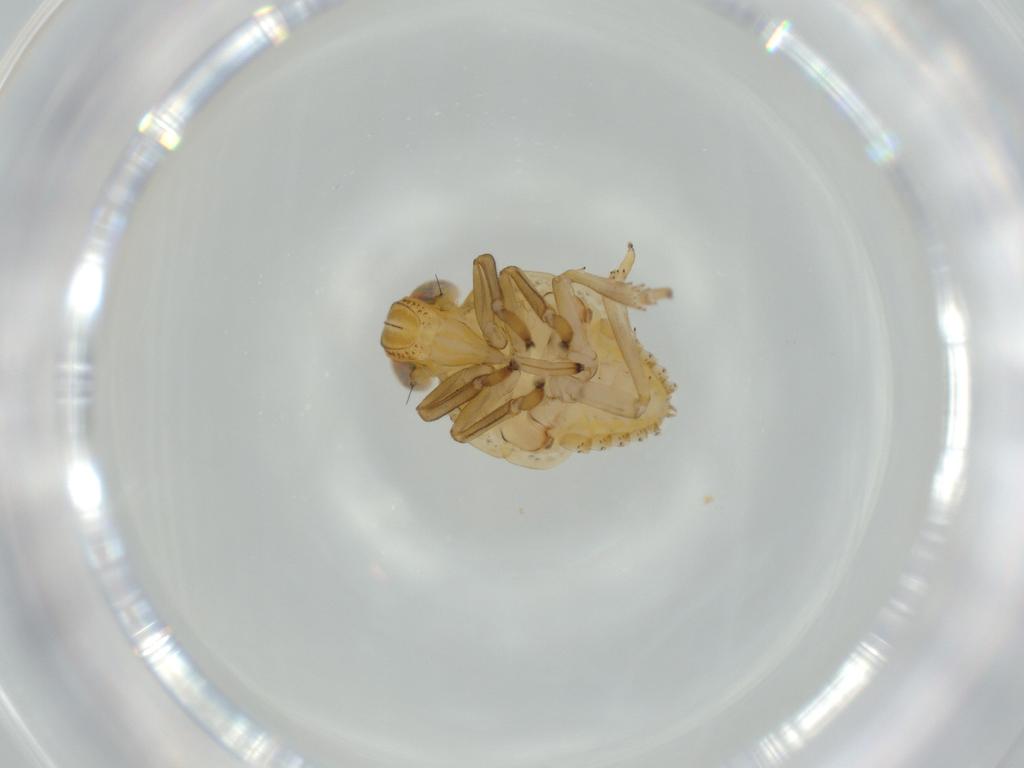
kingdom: Animalia
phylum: Arthropoda
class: Insecta
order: Hemiptera
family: Issidae
